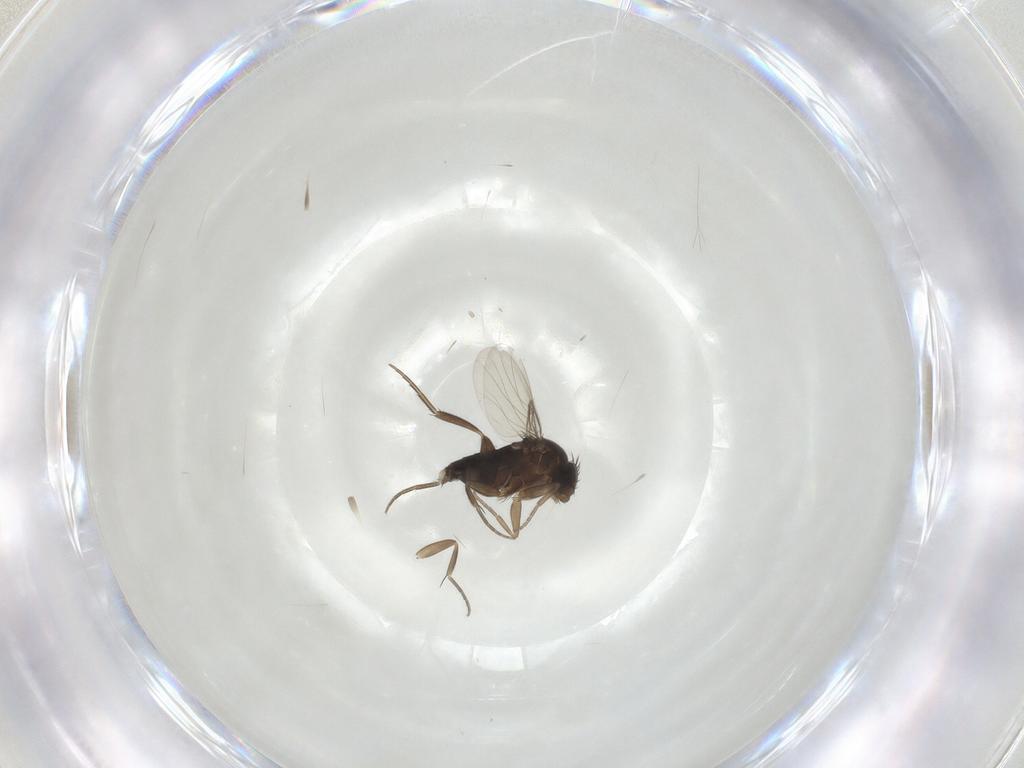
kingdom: Animalia
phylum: Arthropoda
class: Insecta
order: Diptera
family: Phoridae
